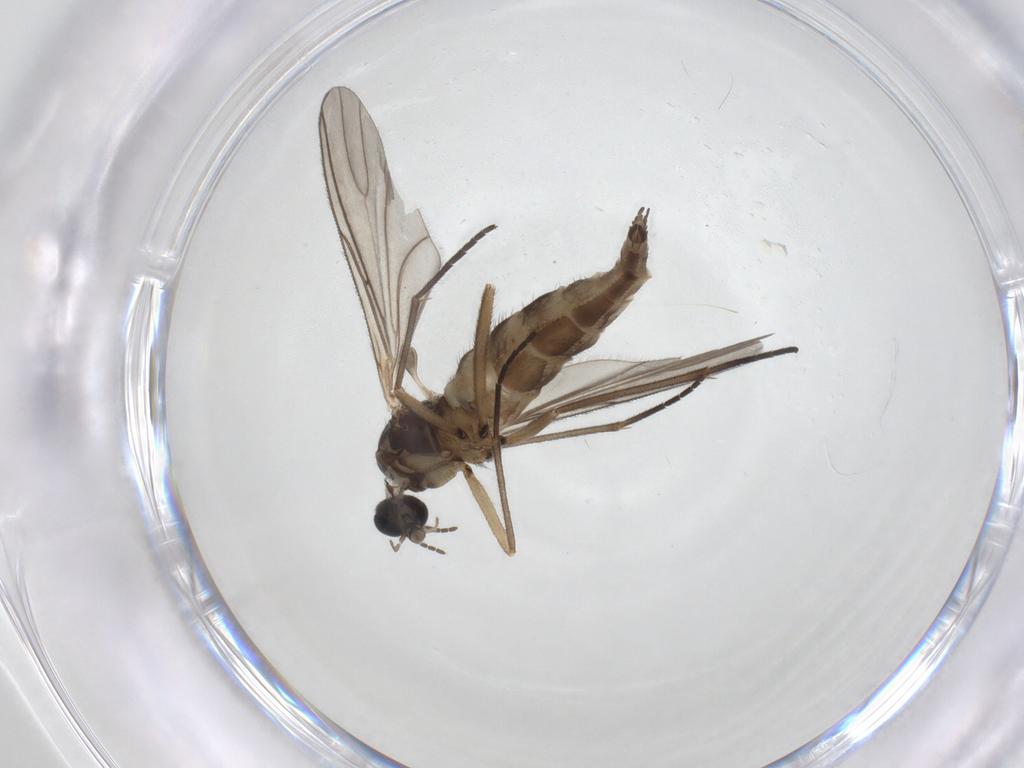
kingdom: Animalia
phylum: Arthropoda
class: Insecta
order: Diptera
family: Sciaridae
